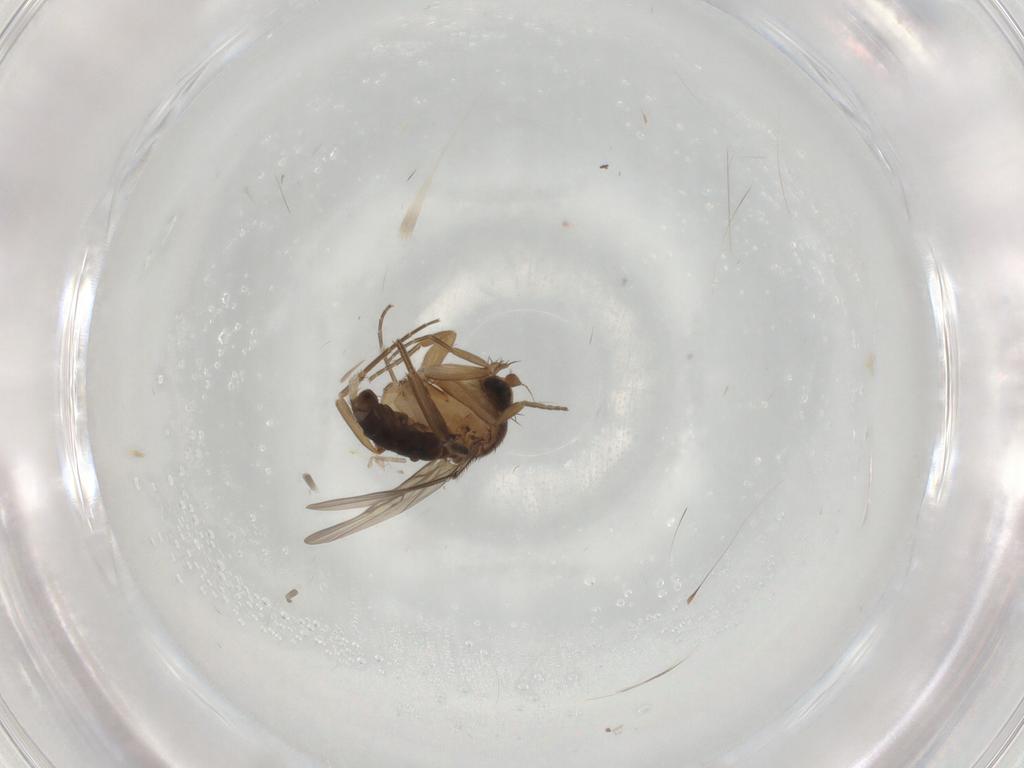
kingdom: Animalia
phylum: Arthropoda
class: Insecta
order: Diptera
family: Phoridae
